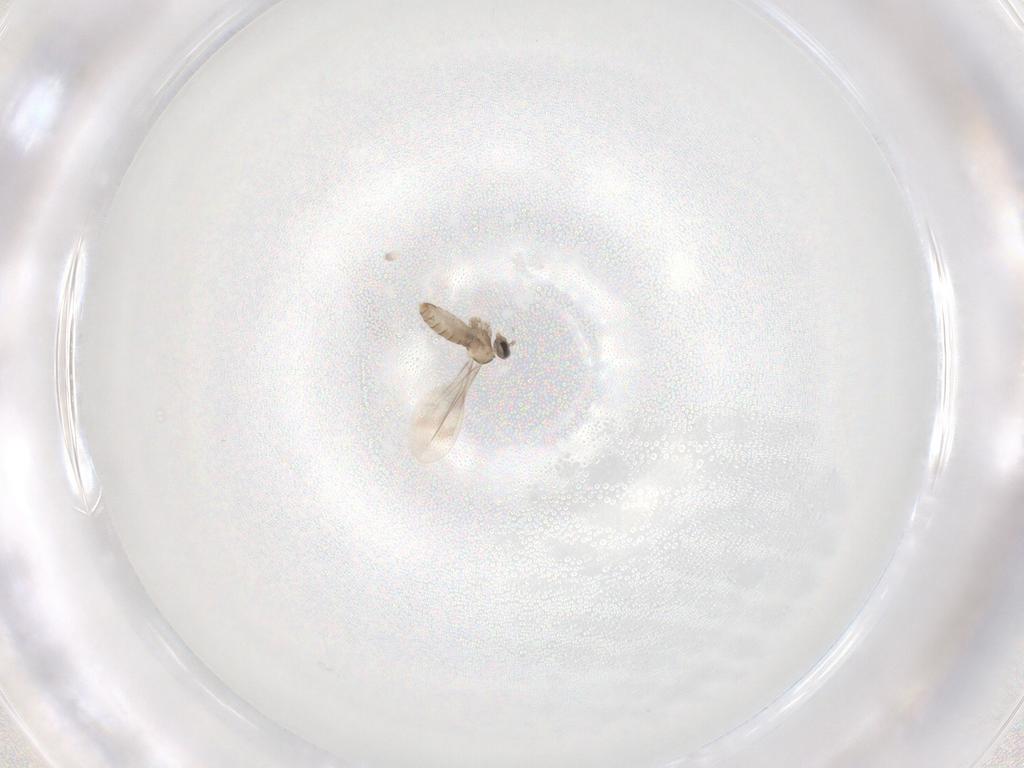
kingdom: Animalia
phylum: Arthropoda
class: Insecta
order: Diptera
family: Cecidomyiidae
